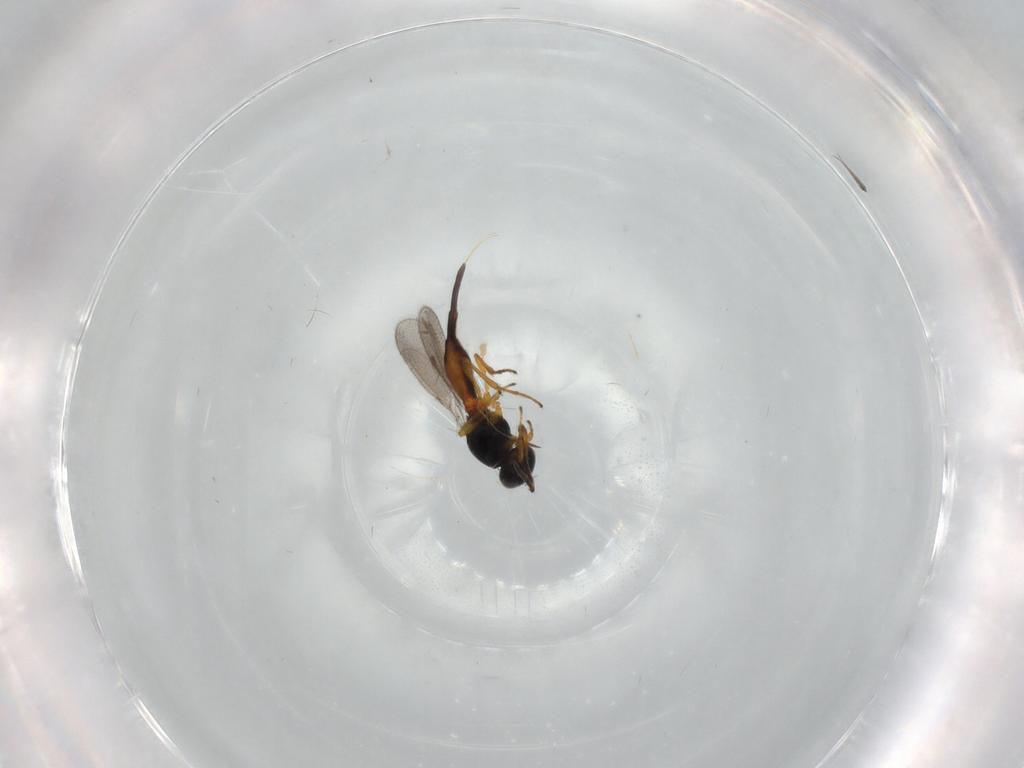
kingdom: Animalia
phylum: Arthropoda
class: Insecta
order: Hymenoptera
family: Platygastridae
